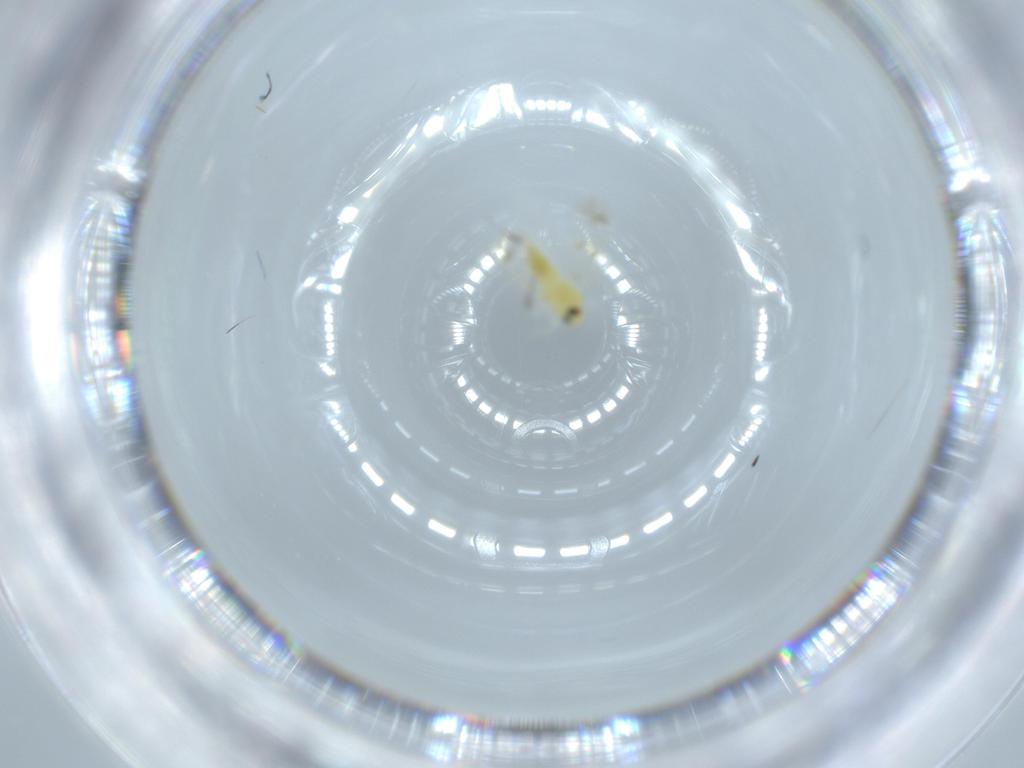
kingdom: Animalia
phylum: Arthropoda
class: Insecta
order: Hemiptera
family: Aleyrodidae
